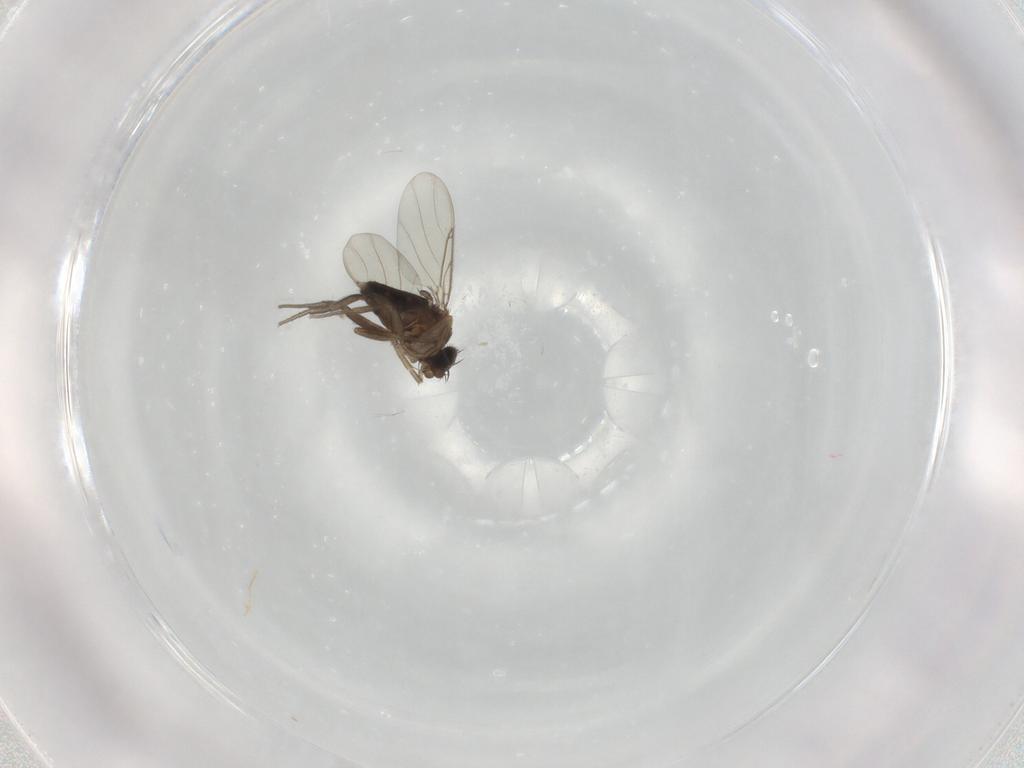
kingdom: Animalia
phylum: Arthropoda
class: Insecta
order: Diptera
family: Phoridae
